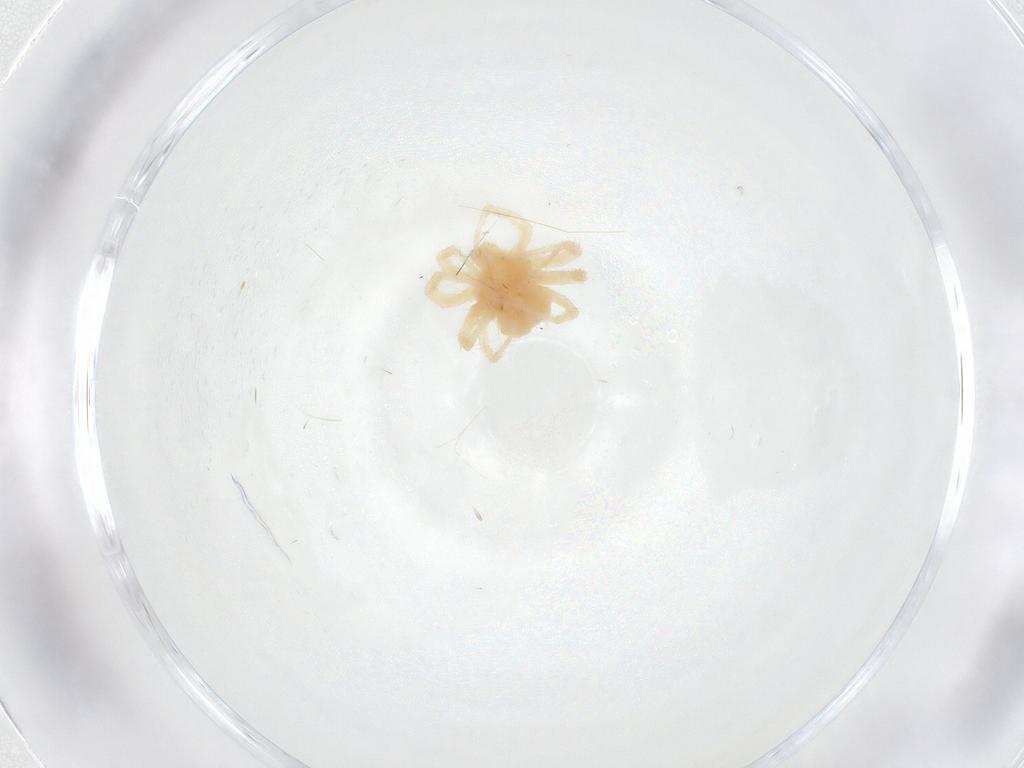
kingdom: Animalia
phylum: Arthropoda
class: Arachnida
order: Trombidiformes
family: Anystidae
